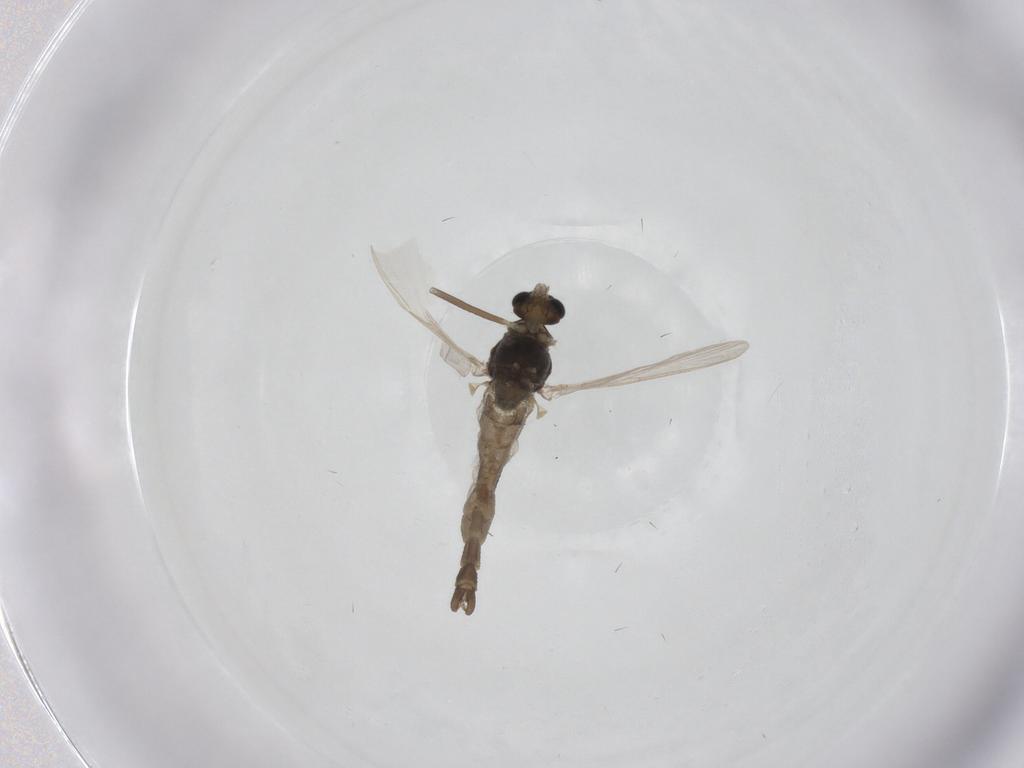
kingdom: Animalia
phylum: Arthropoda
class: Insecta
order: Diptera
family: Chironomidae
